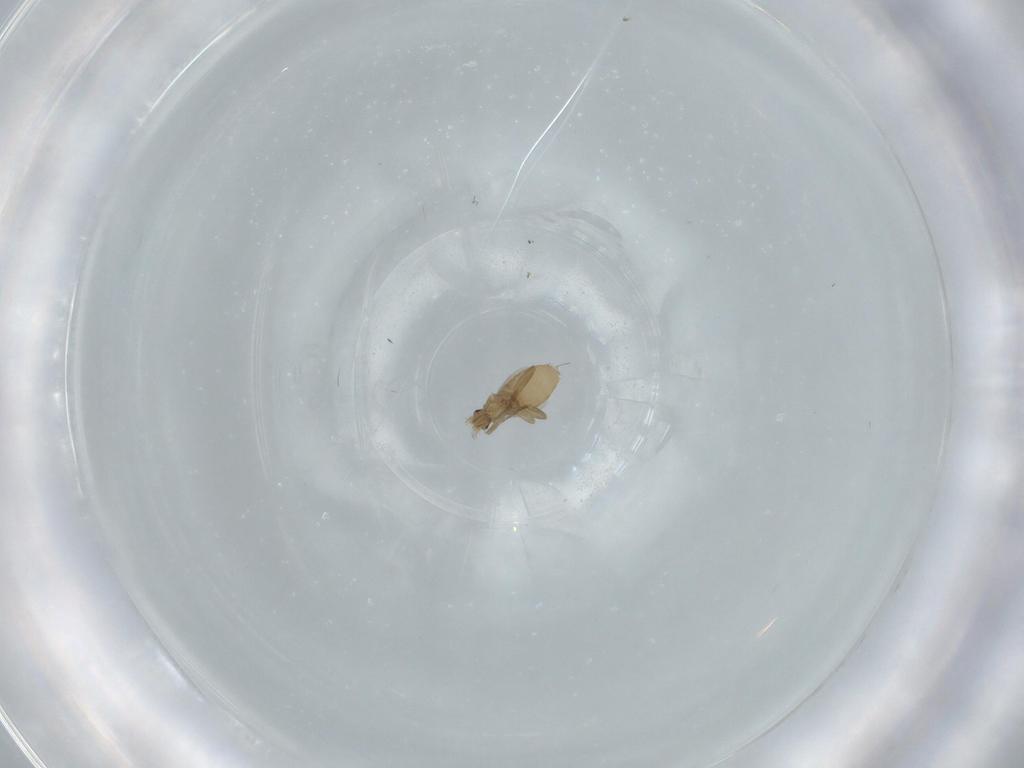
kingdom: Animalia
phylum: Arthropoda
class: Insecta
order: Diptera
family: Phoridae
